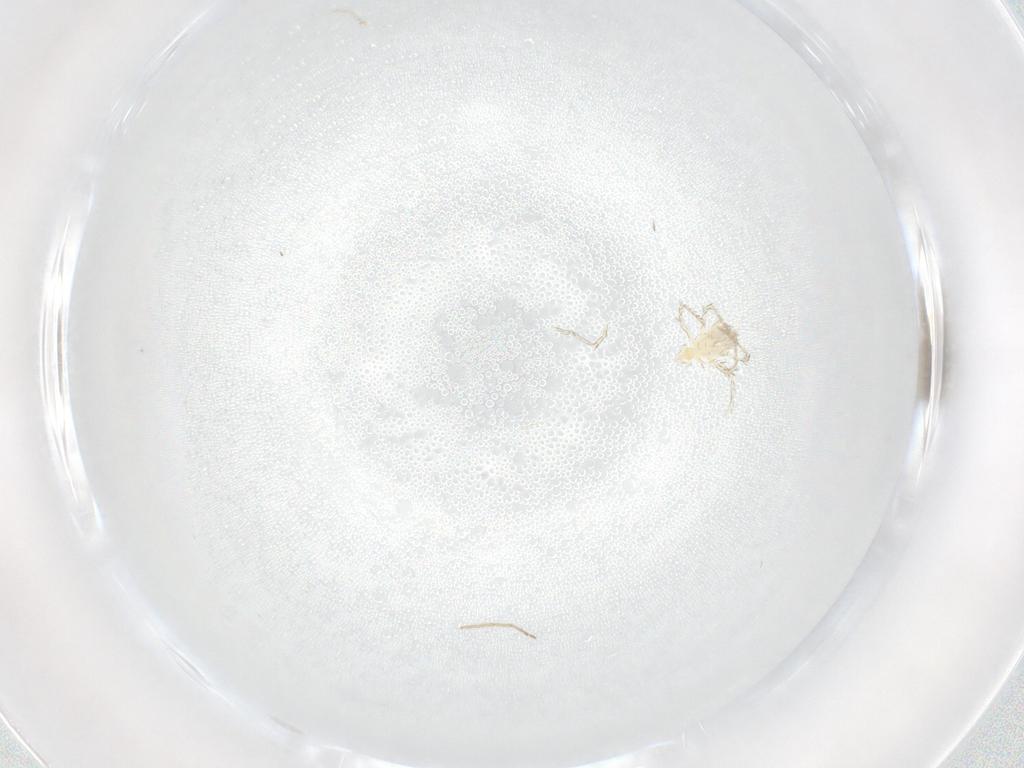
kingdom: Animalia
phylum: Arthropoda
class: Arachnida
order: Trombidiformes
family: Erythraeidae
